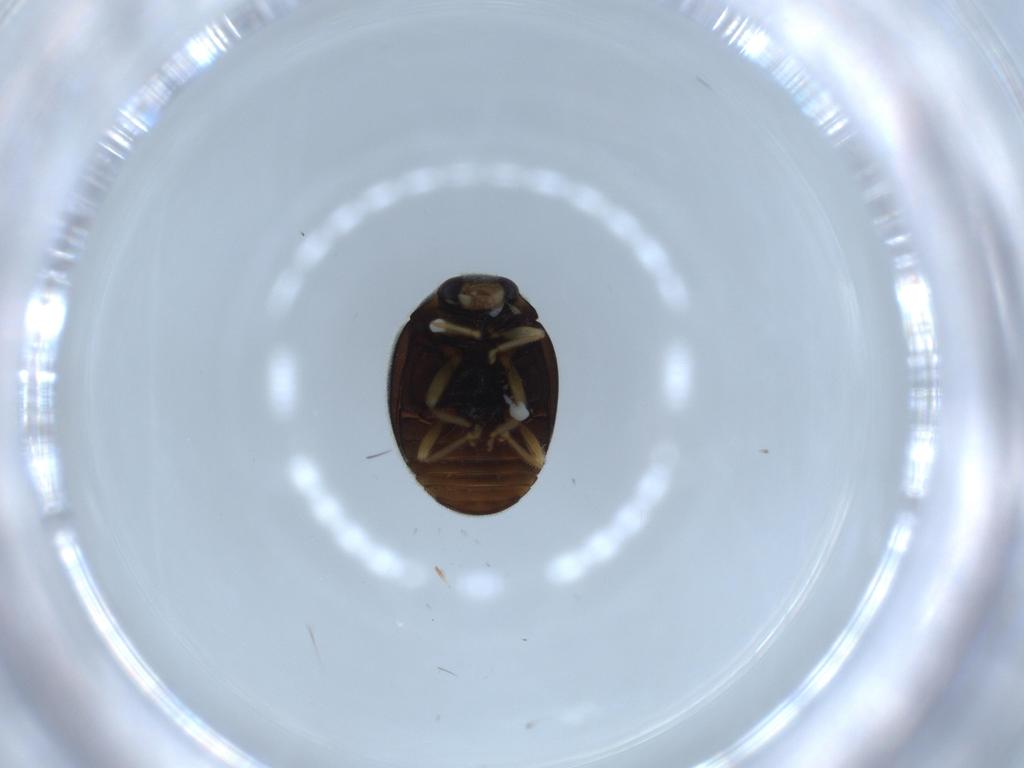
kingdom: Animalia
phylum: Arthropoda
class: Insecta
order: Coleoptera
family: Coccinellidae
